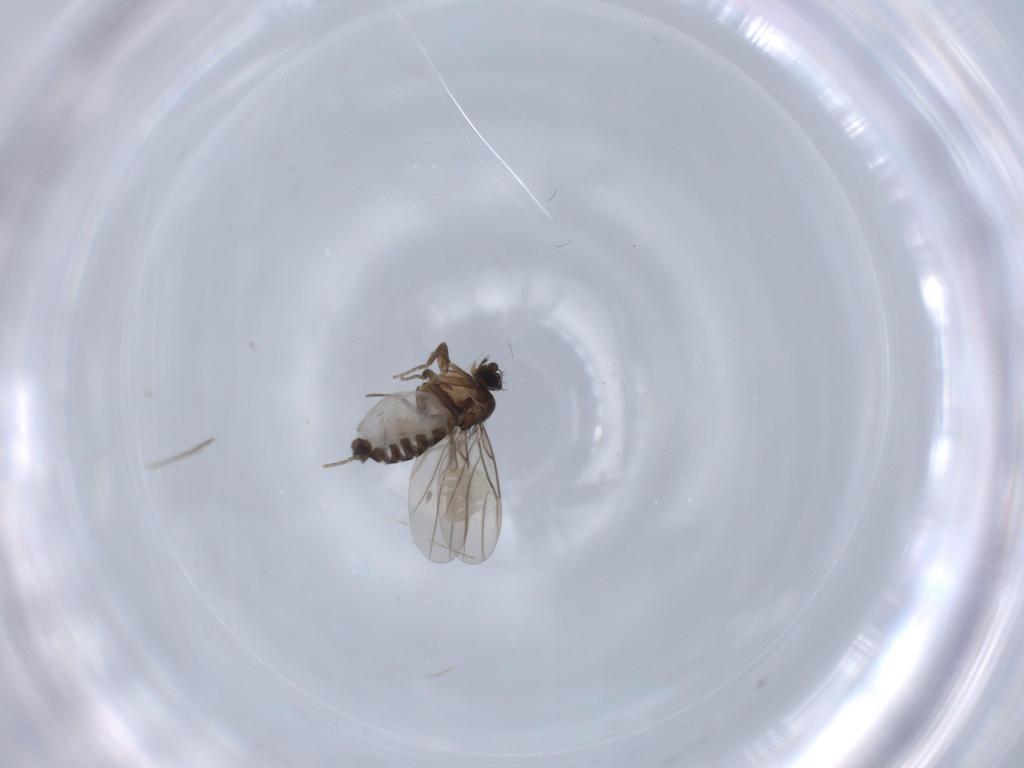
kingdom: Animalia
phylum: Arthropoda
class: Insecta
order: Diptera
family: Phoridae
